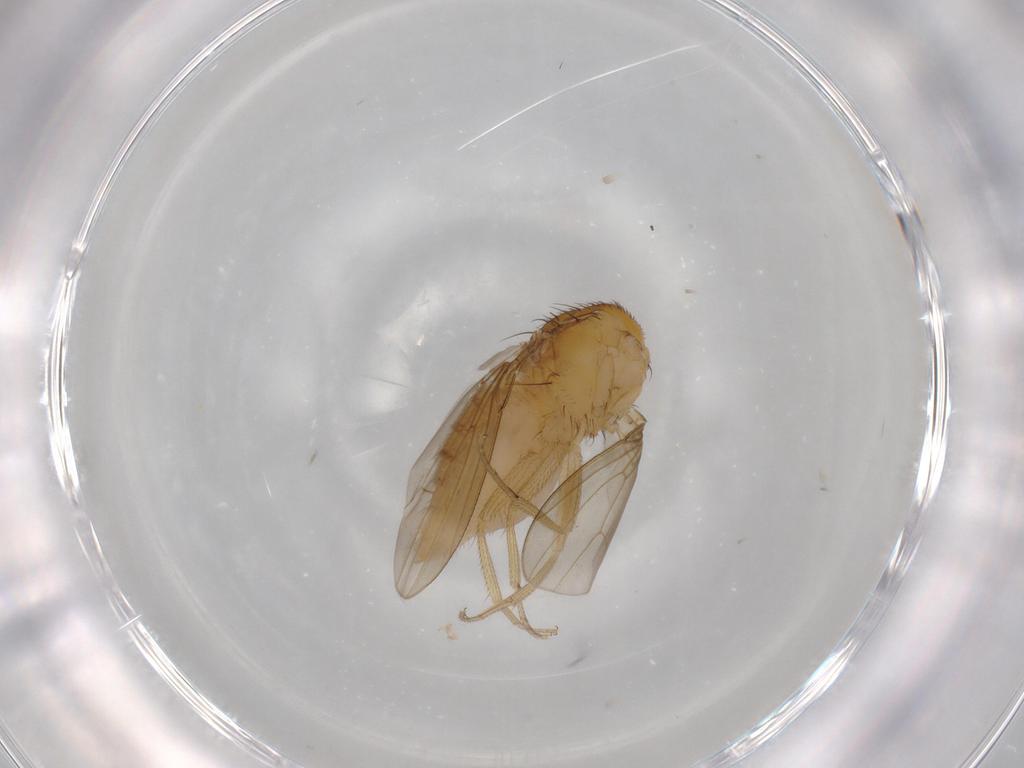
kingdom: Animalia
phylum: Arthropoda
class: Insecta
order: Diptera
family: Drosophilidae
